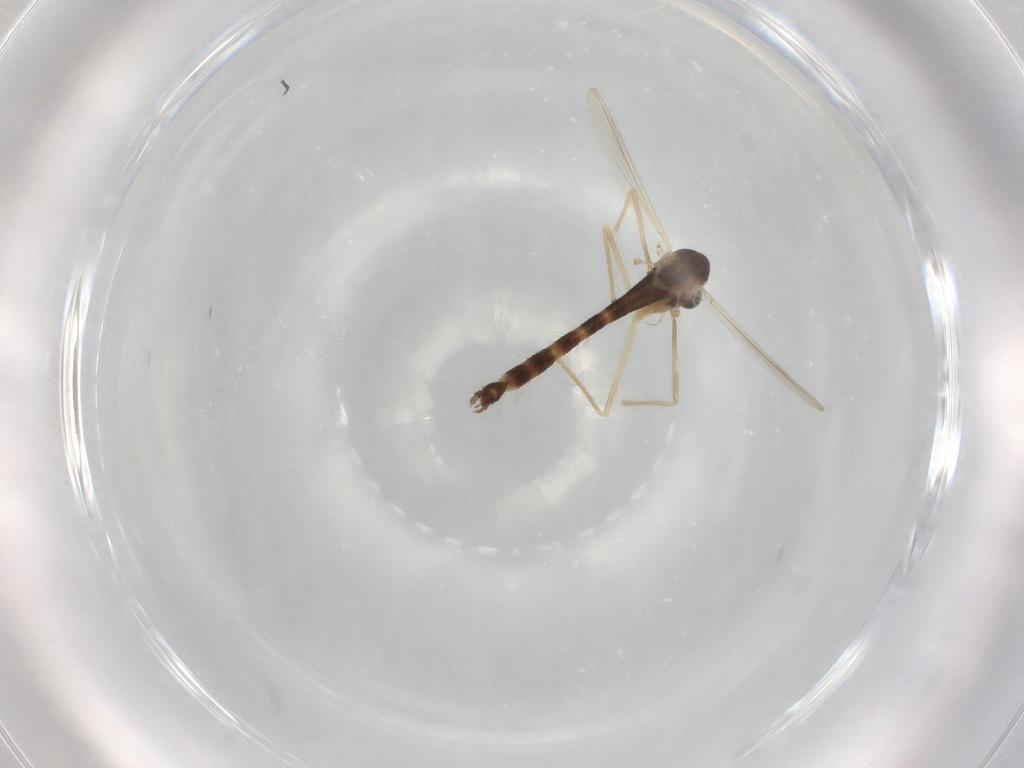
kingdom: Animalia
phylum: Arthropoda
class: Insecta
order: Diptera
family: Chironomidae
